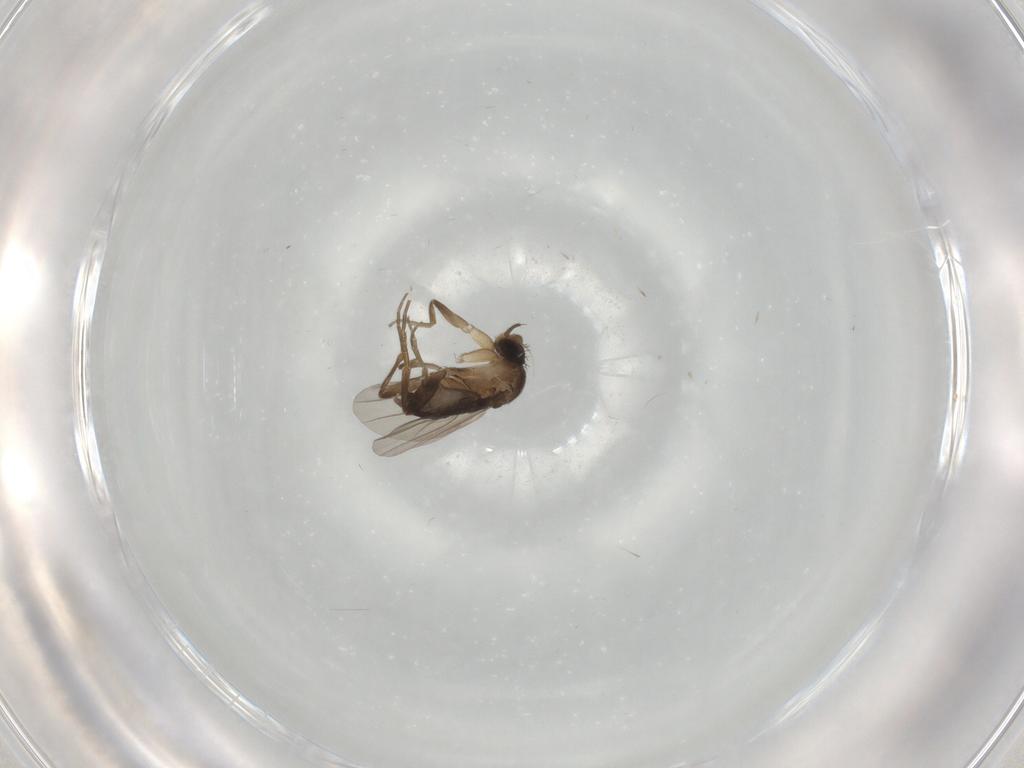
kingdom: Animalia
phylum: Arthropoda
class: Insecta
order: Diptera
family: Phoridae
